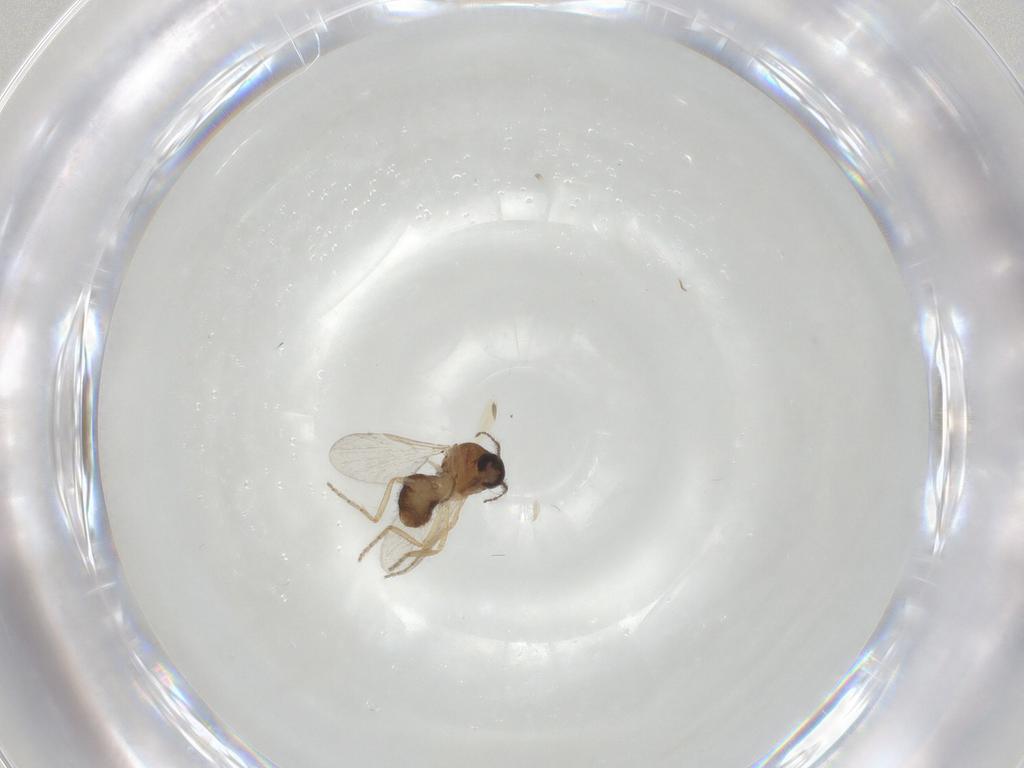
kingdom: Animalia
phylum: Arthropoda
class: Insecta
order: Diptera
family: Ceratopogonidae
